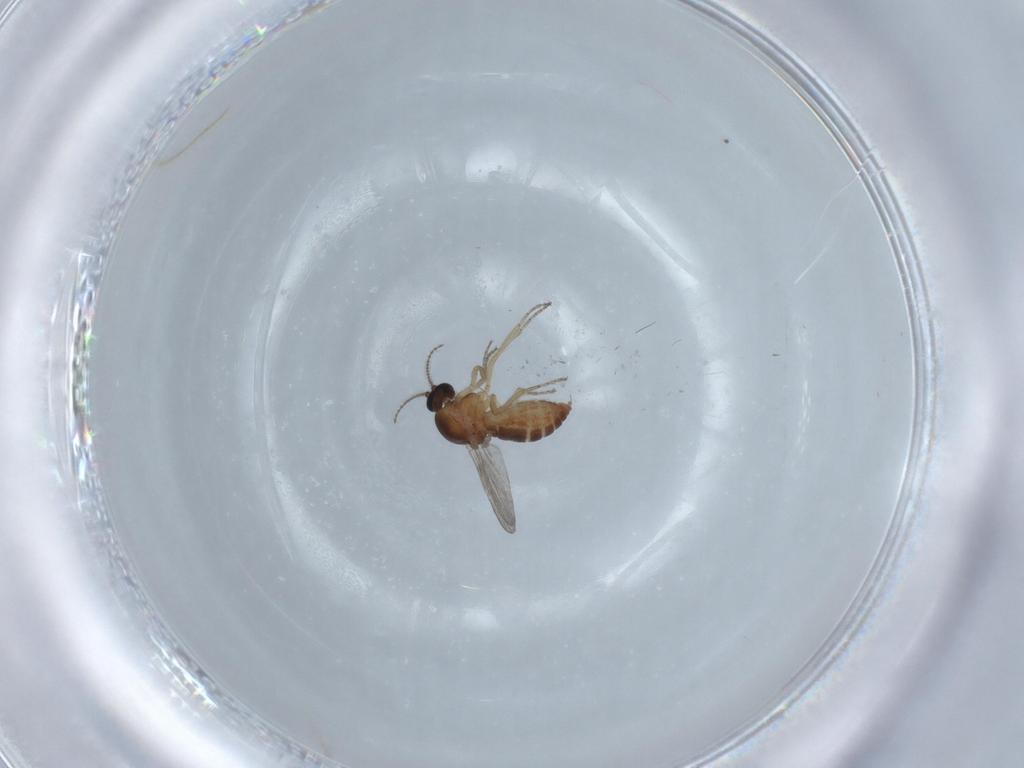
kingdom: Animalia
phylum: Arthropoda
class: Insecta
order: Diptera
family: Ceratopogonidae
